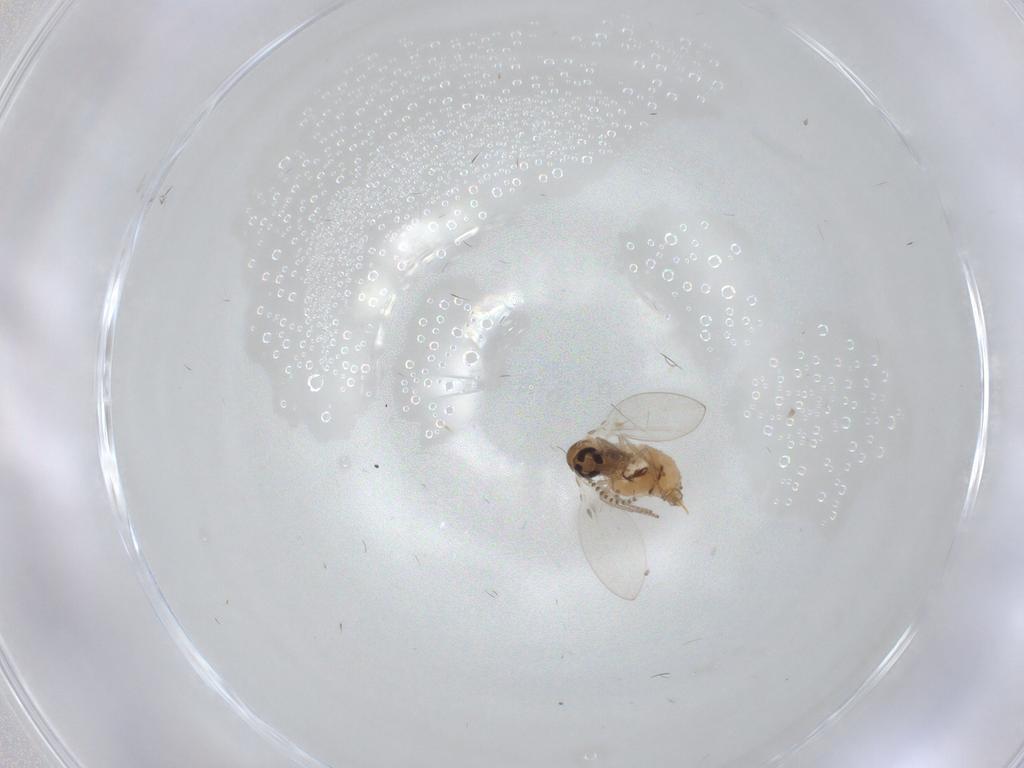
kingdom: Animalia
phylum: Arthropoda
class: Insecta
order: Diptera
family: Psychodidae
